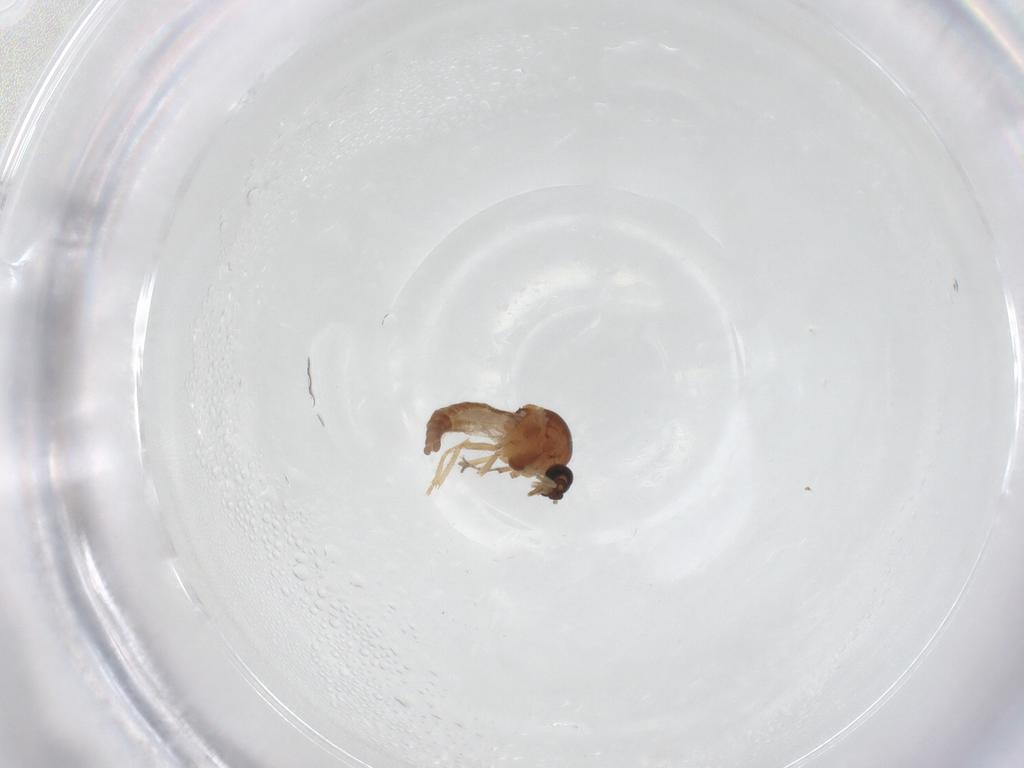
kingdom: Animalia
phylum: Arthropoda
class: Insecta
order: Diptera
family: Ceratopogonidae
